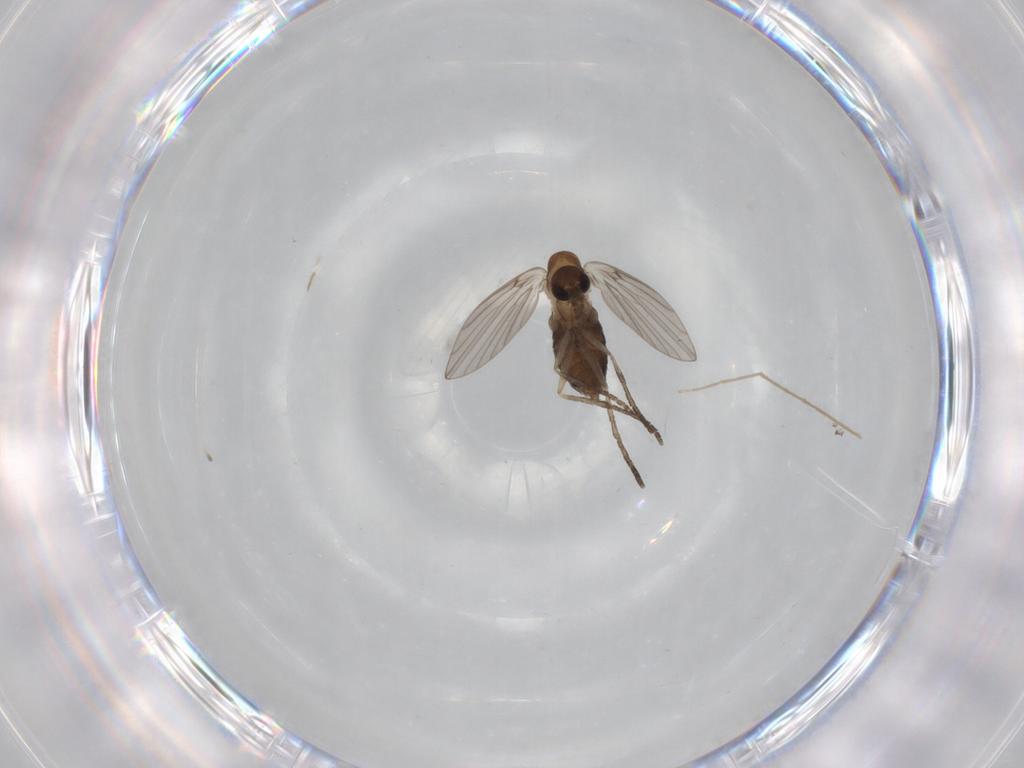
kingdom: Animalia
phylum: Arthropoda
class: Insecta
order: Diptera
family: Psychodidae
